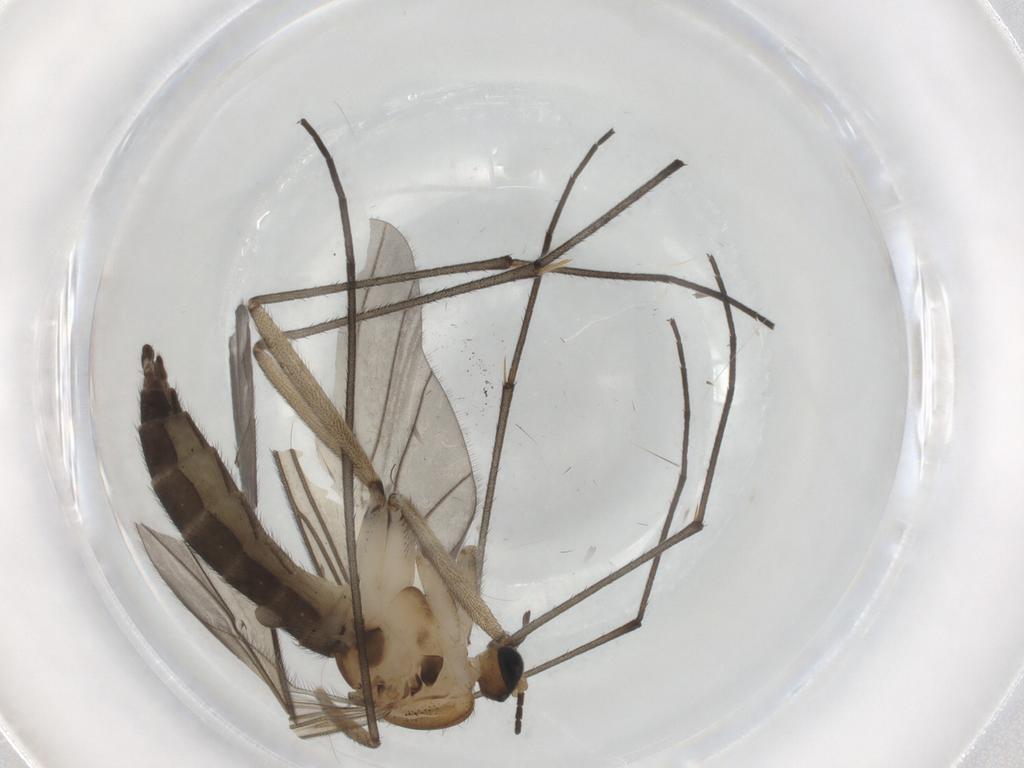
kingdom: Animalia
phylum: Arthropoda
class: Insecta
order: Diptera
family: Sciaridae
